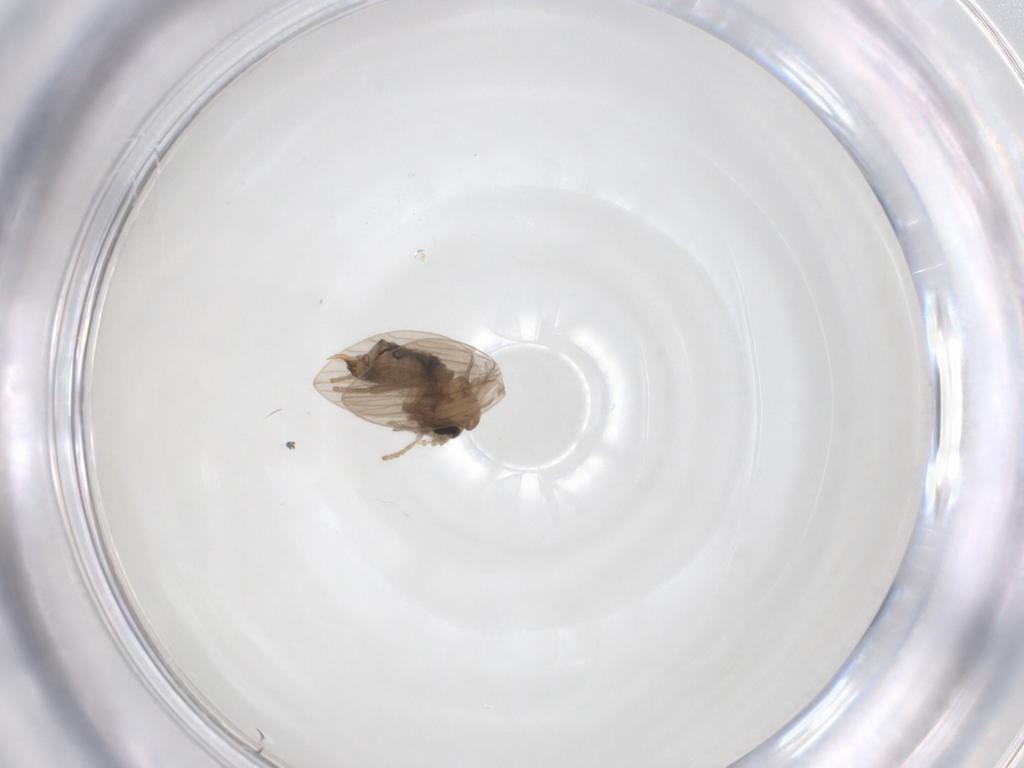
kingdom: Animalia
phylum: Arthropoda
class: Insecta
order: Diptera
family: Psychodidae
